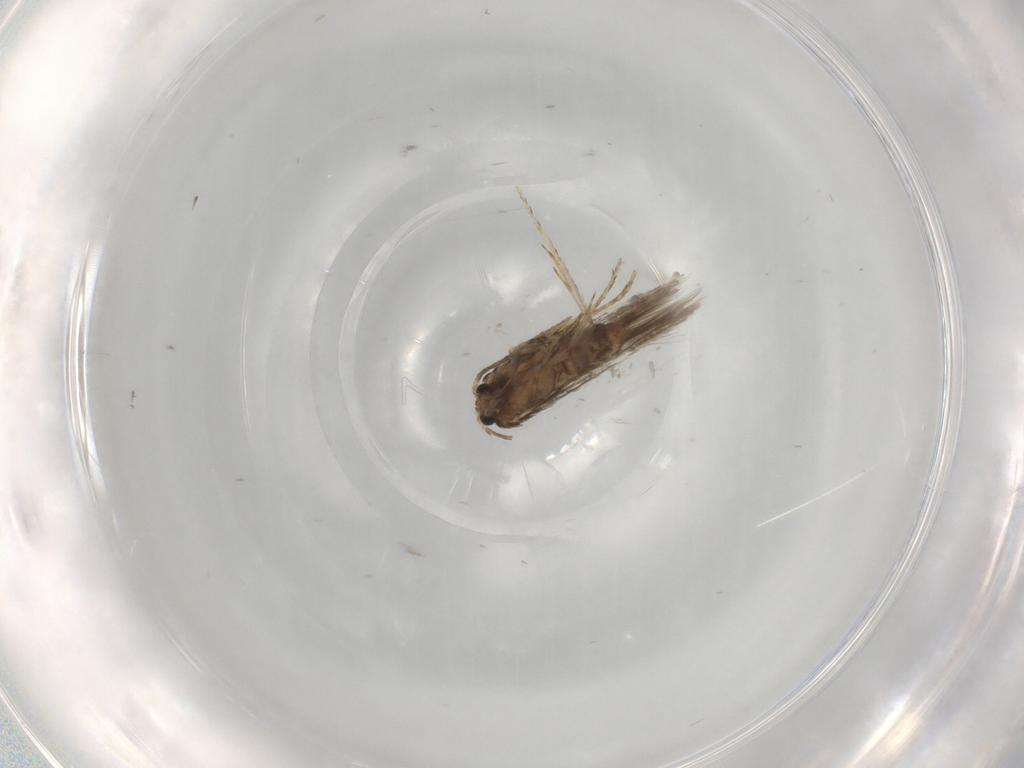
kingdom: Animalia
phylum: Arthropoda
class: Insecta
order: Lepidoptera
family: Nepticulidae
